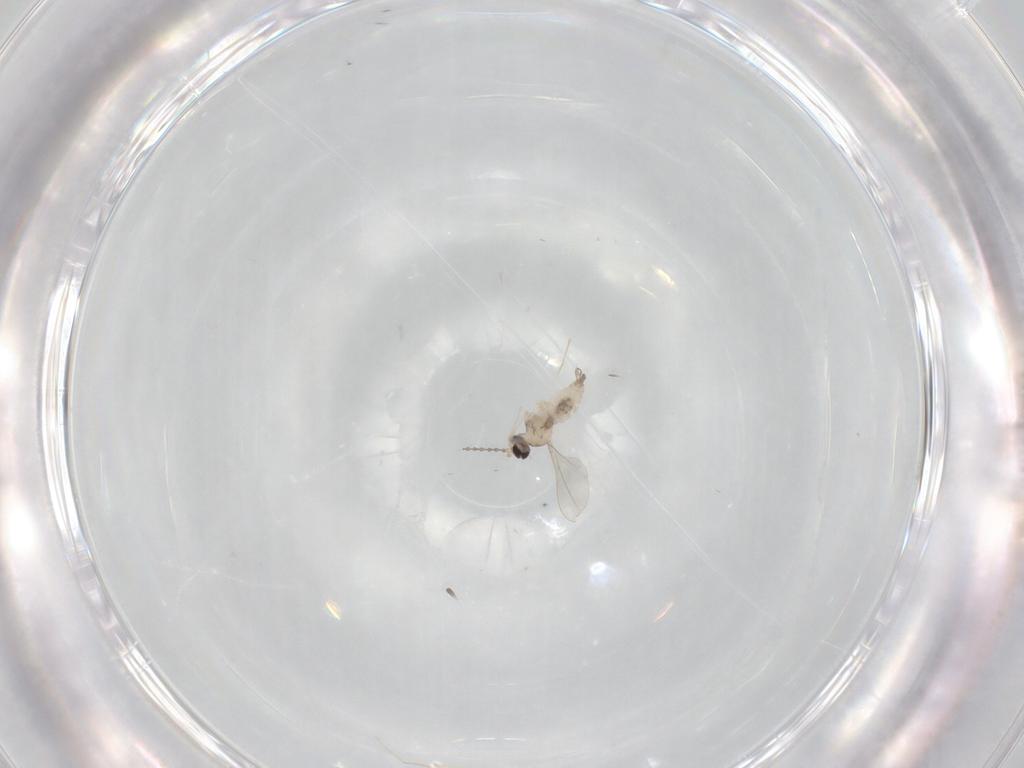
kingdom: Animalia
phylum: Arthropoda
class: Insecta
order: Diptera
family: Cecidomyiidae
